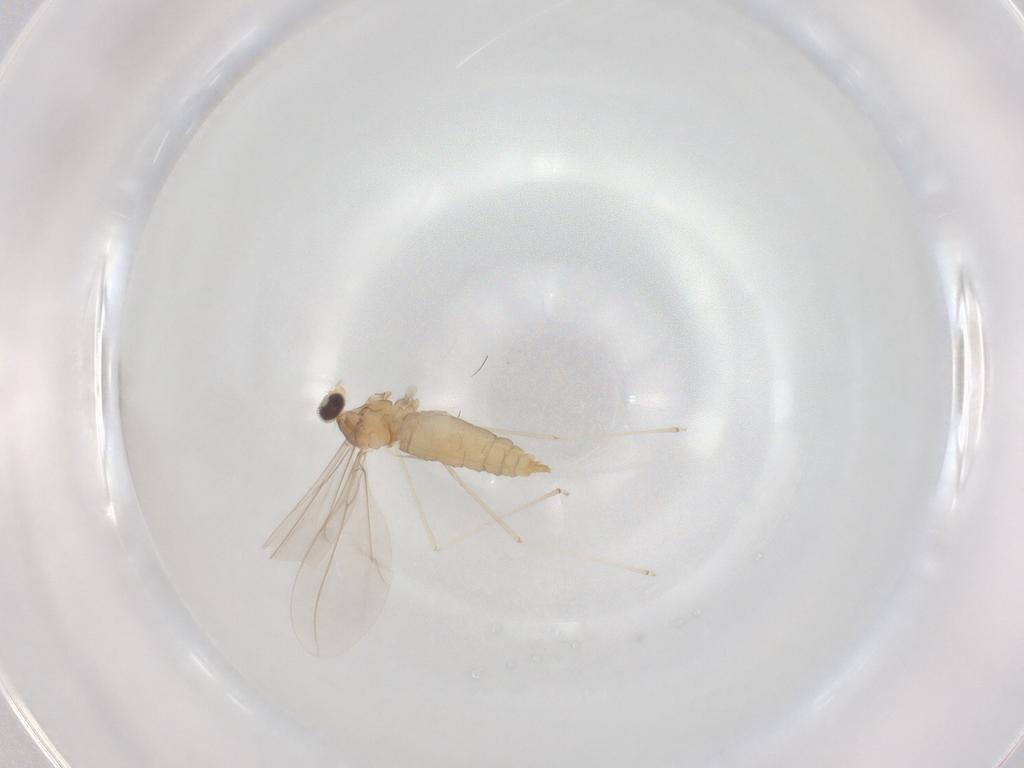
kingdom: Animalia
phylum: Arthropoda
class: Insecta
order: Diptera
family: Cecidomyiidae
